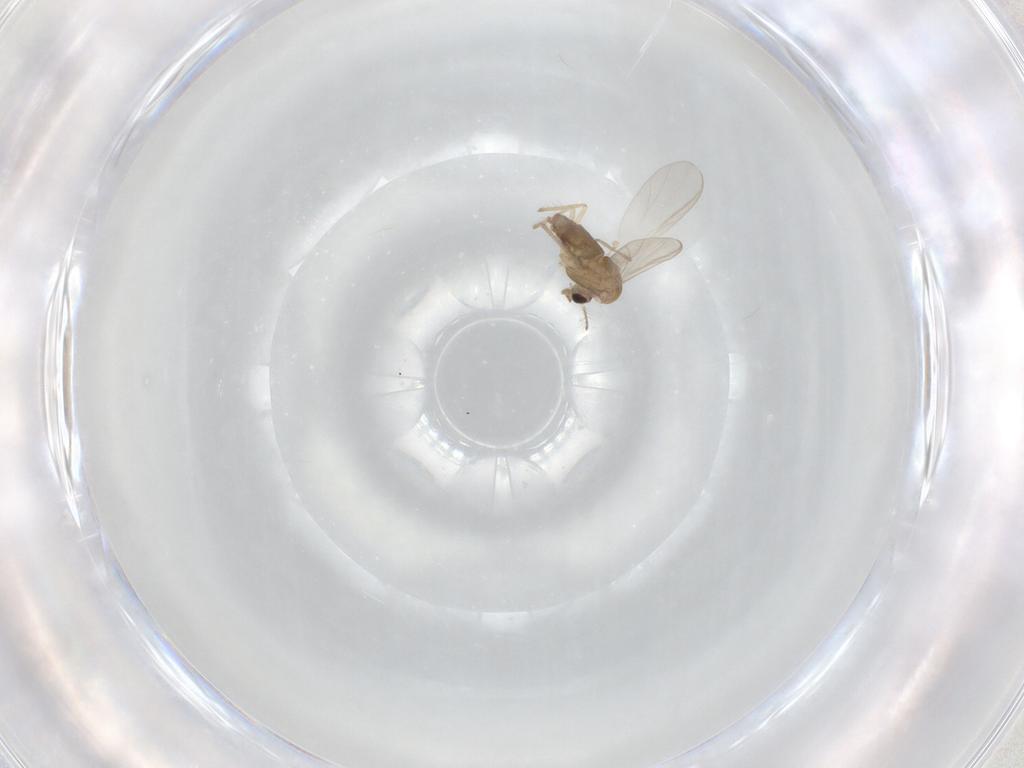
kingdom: Animalia
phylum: Arthropoda
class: Insecta
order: Diptera
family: Chironomidae
